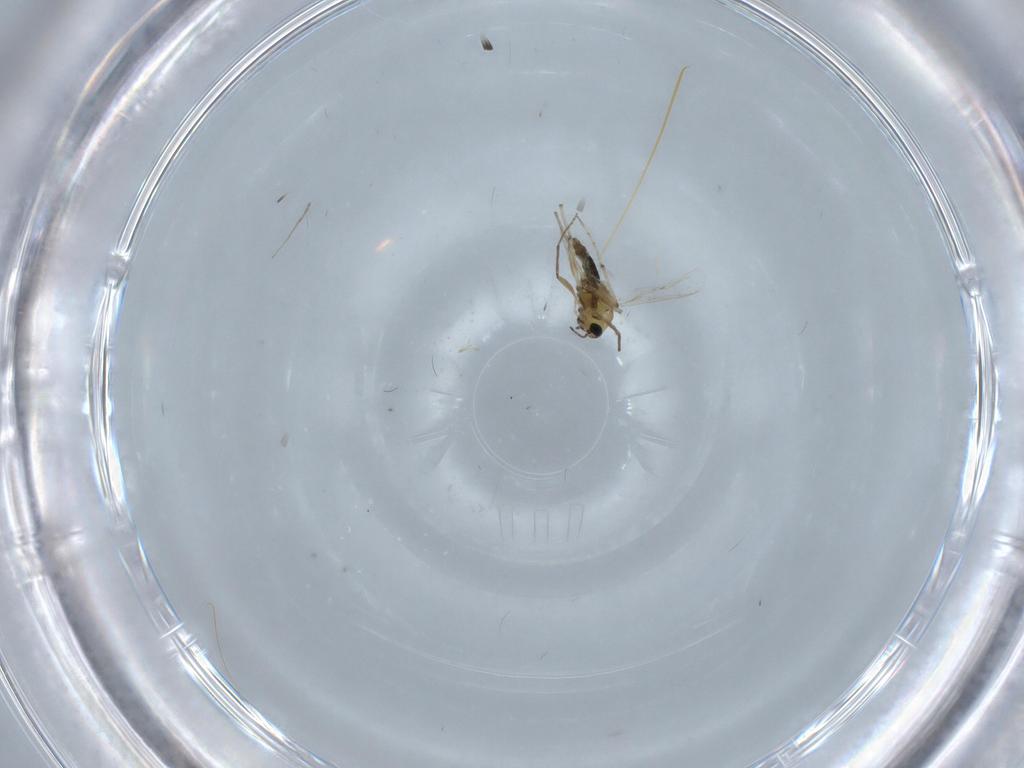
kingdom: Animalia
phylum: Arthropoda
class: Insecta
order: Diptera
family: Chironomidae
